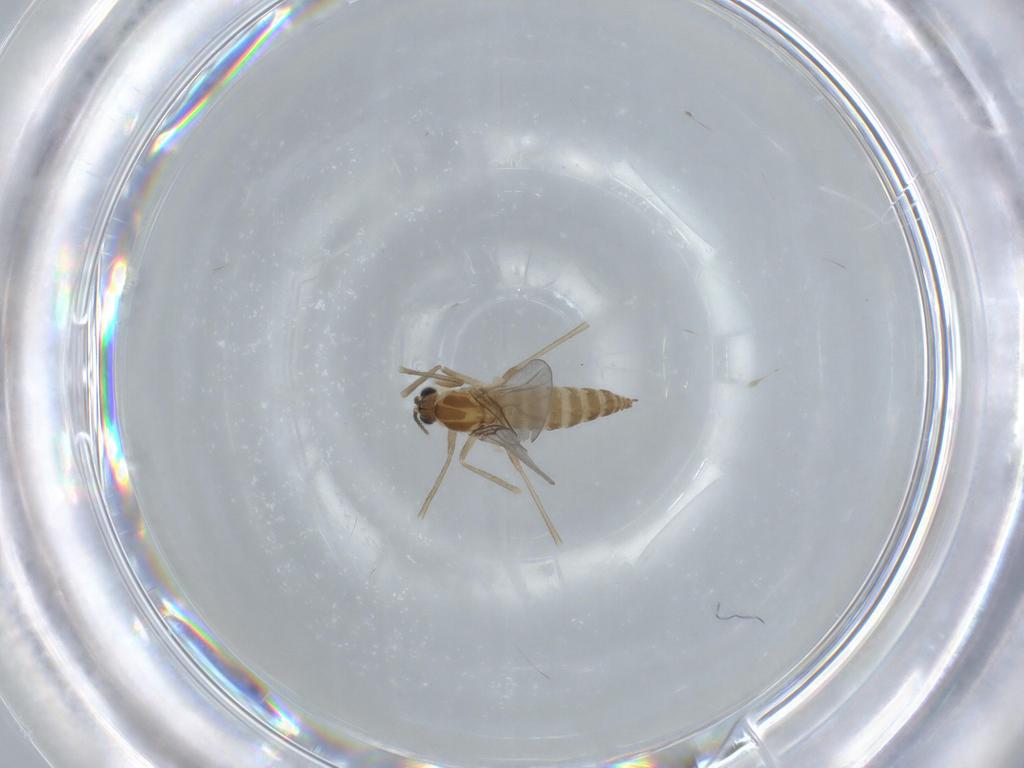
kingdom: Animalia
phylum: Arthropoda
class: Insecta
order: Diptera
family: Cecidomyiidae
